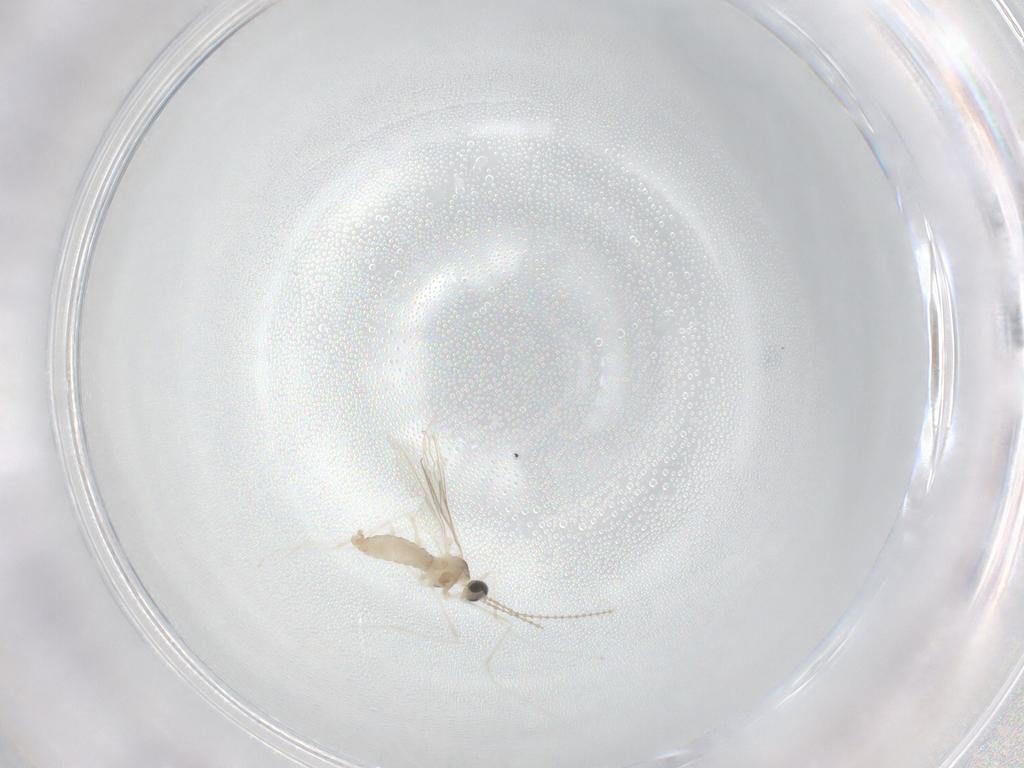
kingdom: Animalia
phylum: Arthropoda
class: Insecta
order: Diptera
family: Cecidomyiidae
